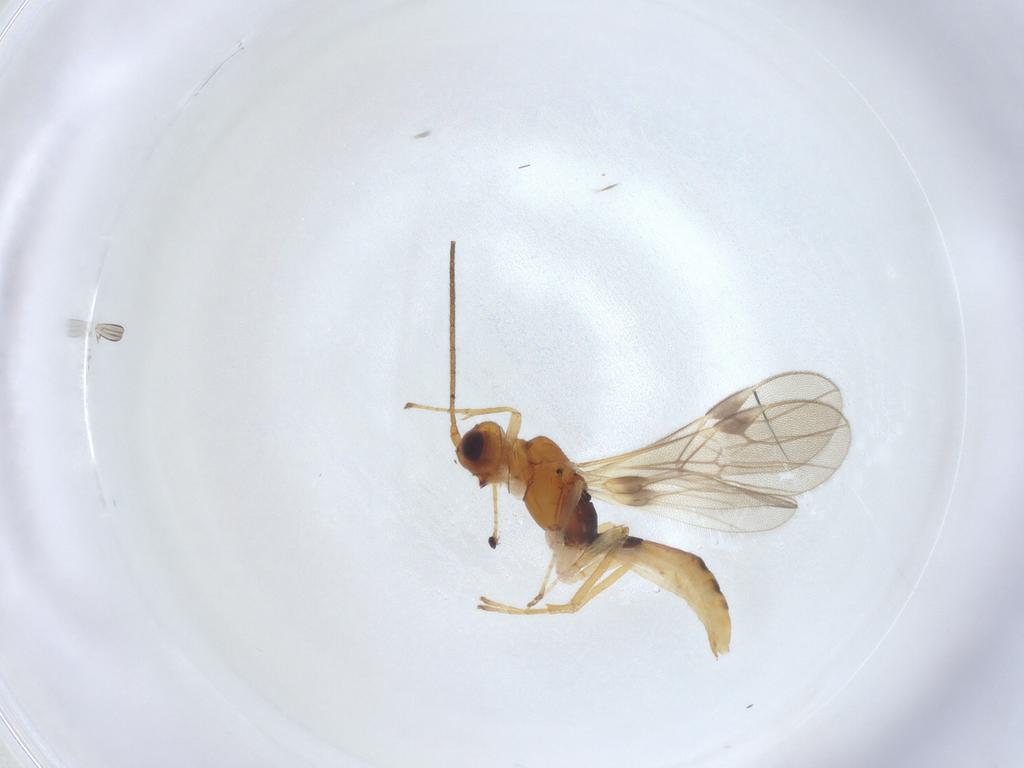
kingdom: Animalia
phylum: Arthropoda
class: Insecta
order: Hymenoptera
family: Braconidae
